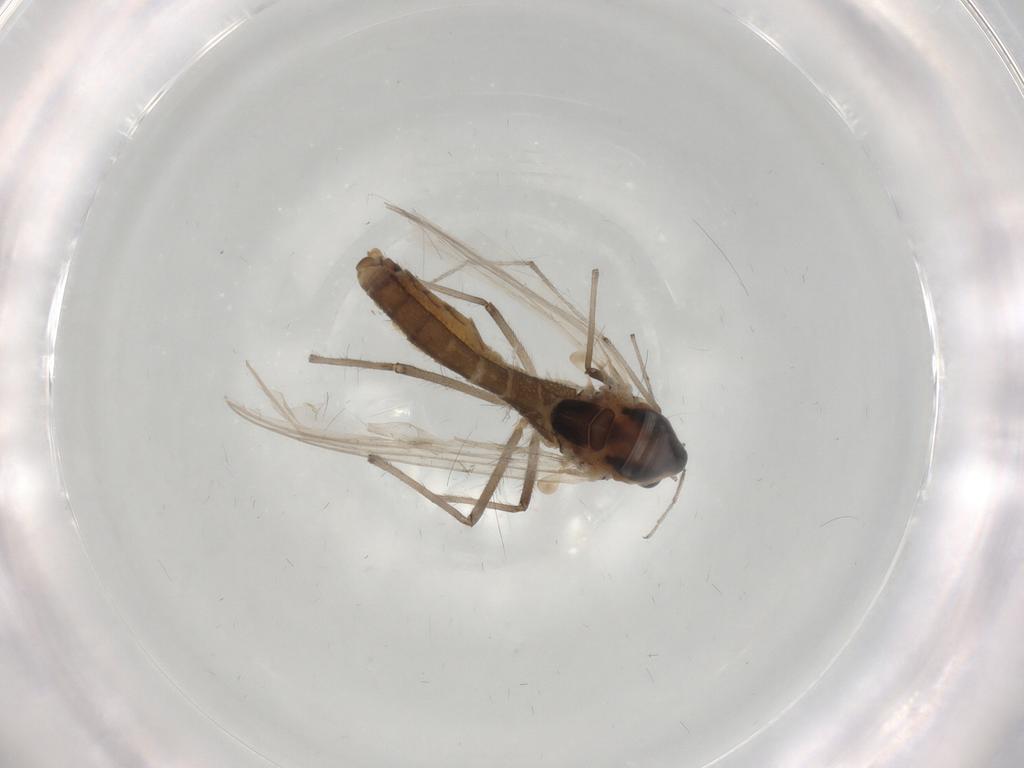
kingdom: Animalia
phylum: Arthropoda
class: Insecta
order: Diptera
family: Chironomidae
